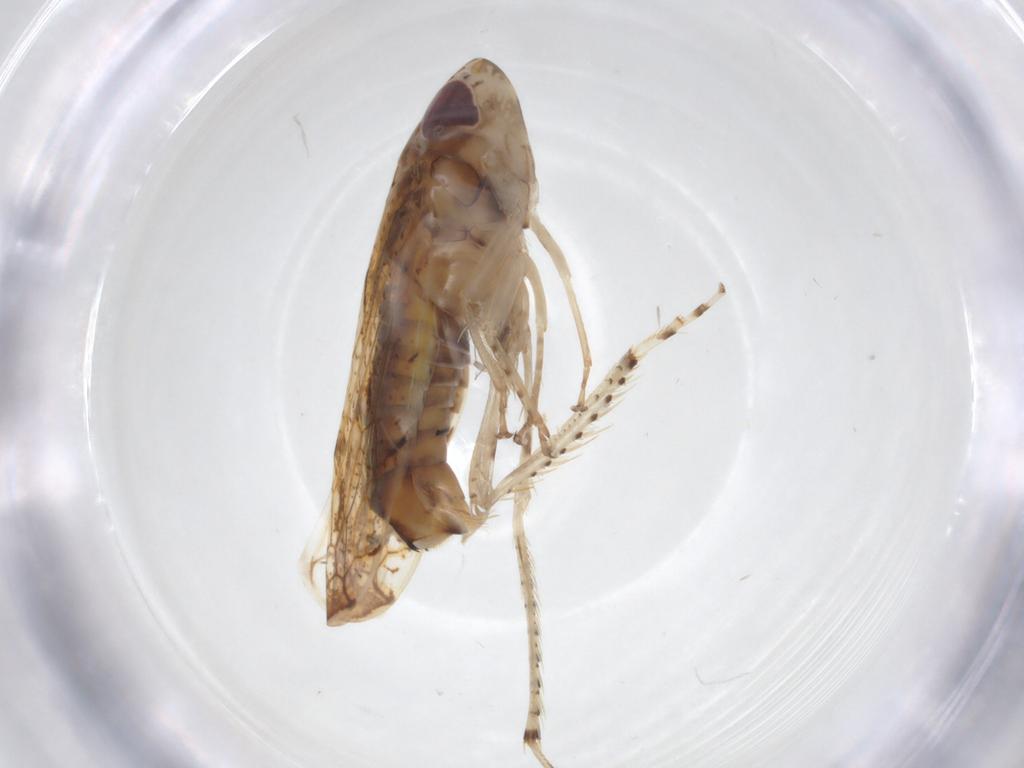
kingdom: Animalia
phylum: Arthropoda
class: Insecta
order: Hemiptera
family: Cicadellidae
